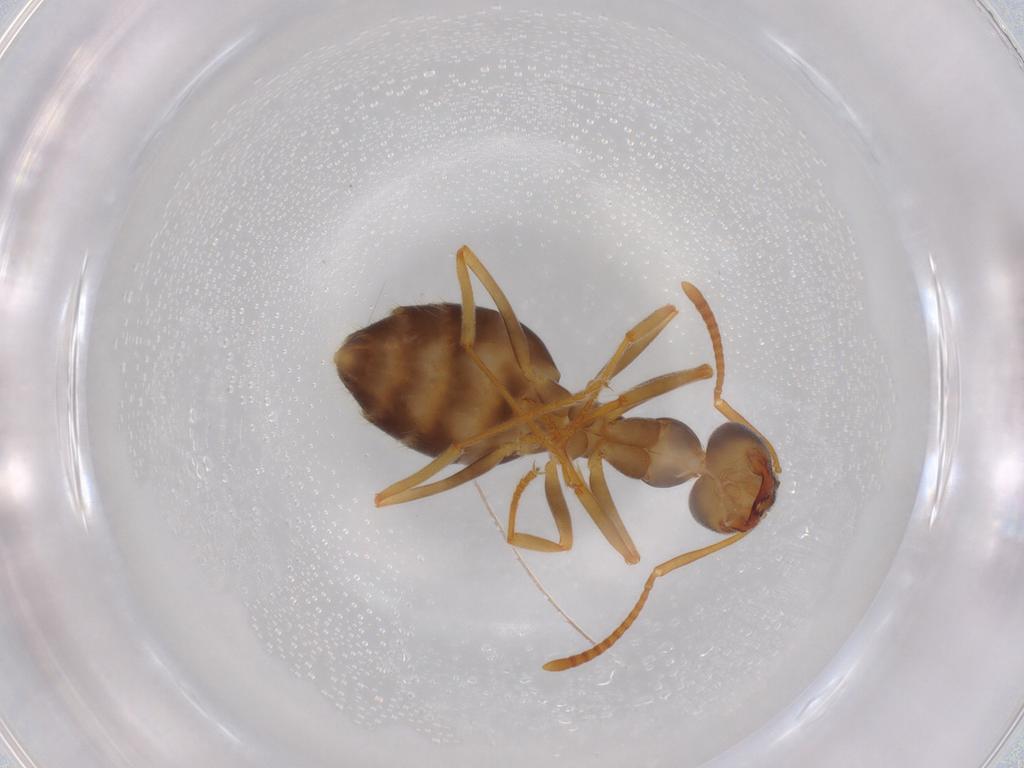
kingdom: Animalia
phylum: Arthropoda
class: Insecta
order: Hymenoptera
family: Formicidae
